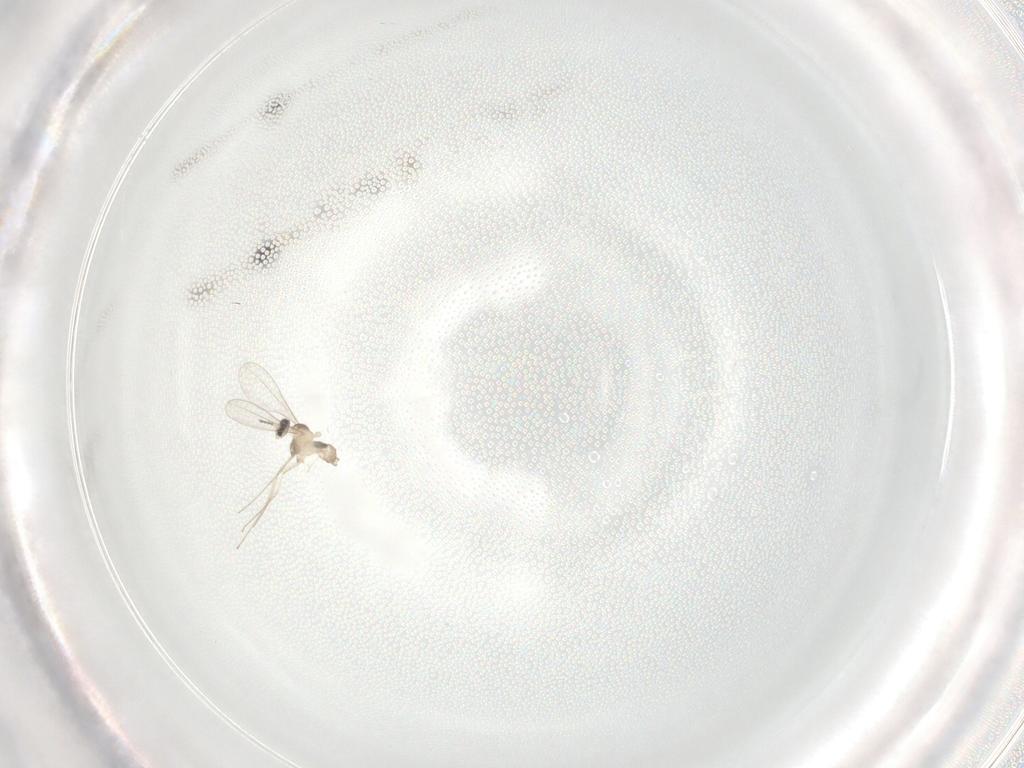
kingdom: Animalia
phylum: Arthropoda
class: Insecta
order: Diptera
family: Cecidomyiidae
